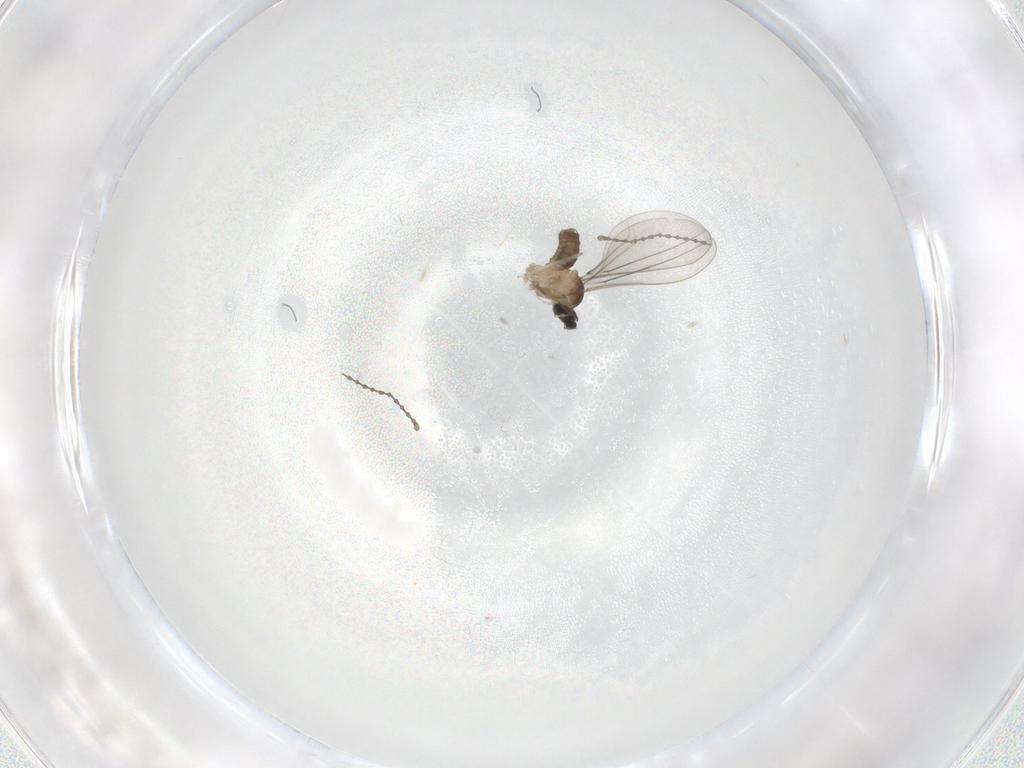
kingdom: Animalia
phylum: Arthropoda
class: Insecta
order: Diptera
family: Cecidomyiidae
